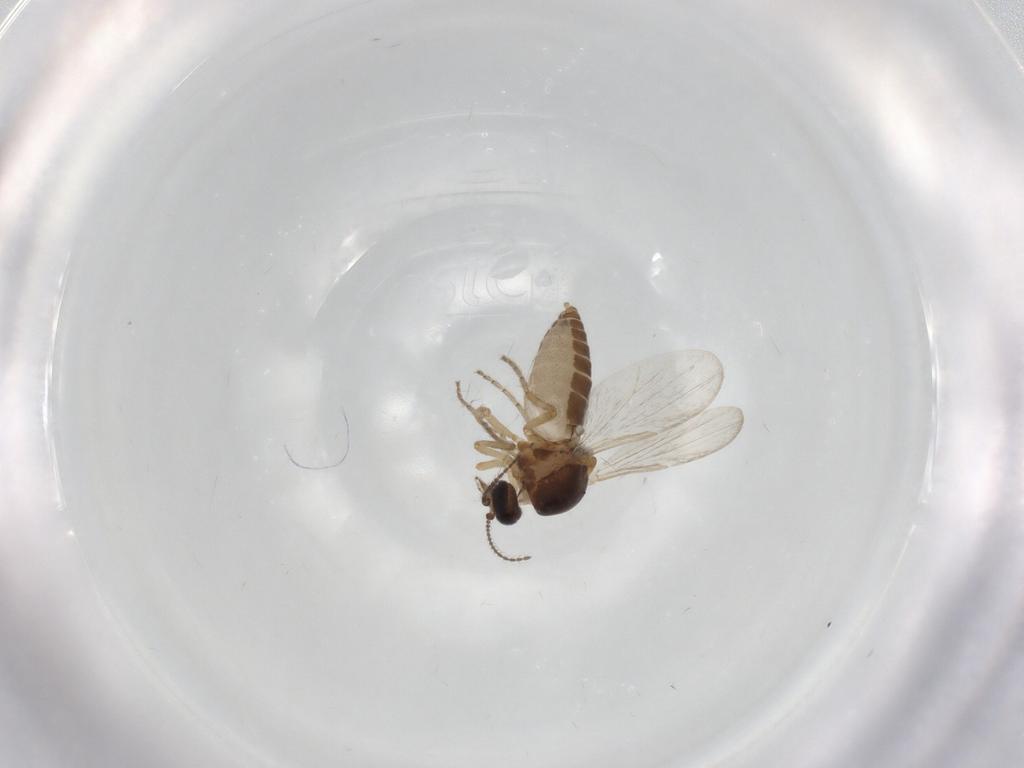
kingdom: Animalia
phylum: Arthropoda
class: Insecta
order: Diptera
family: Ceratopogonidae
